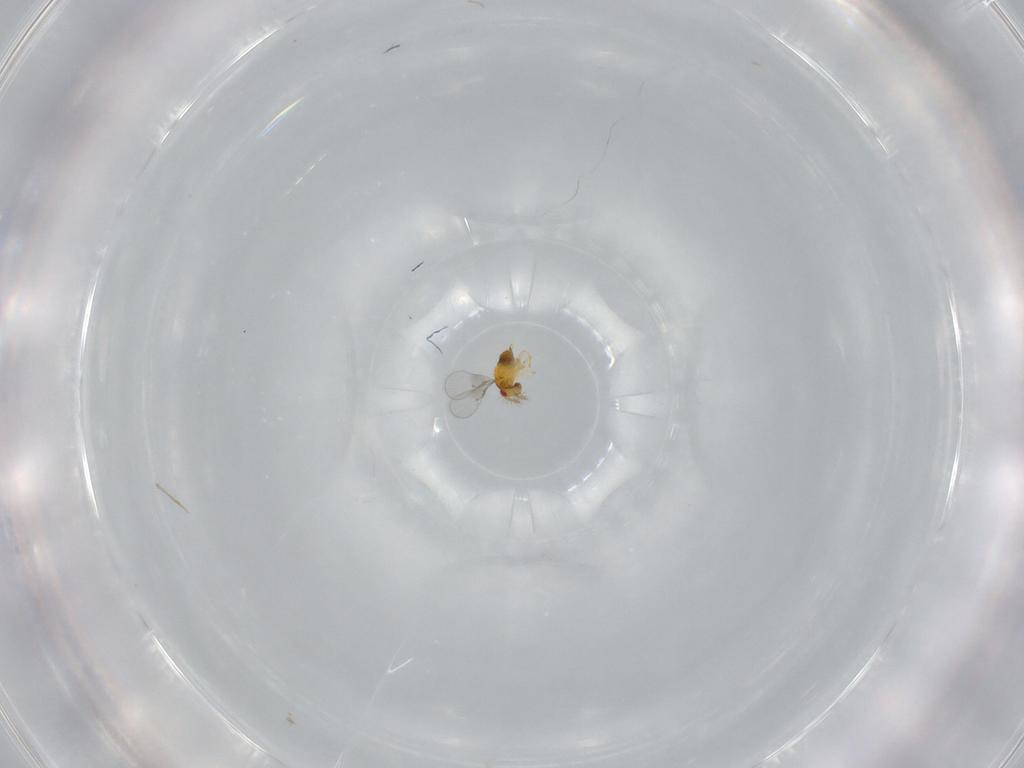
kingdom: Animalia
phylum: Arthropoda
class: Insecta
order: Hymenoptera
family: Trichogrammatidae
